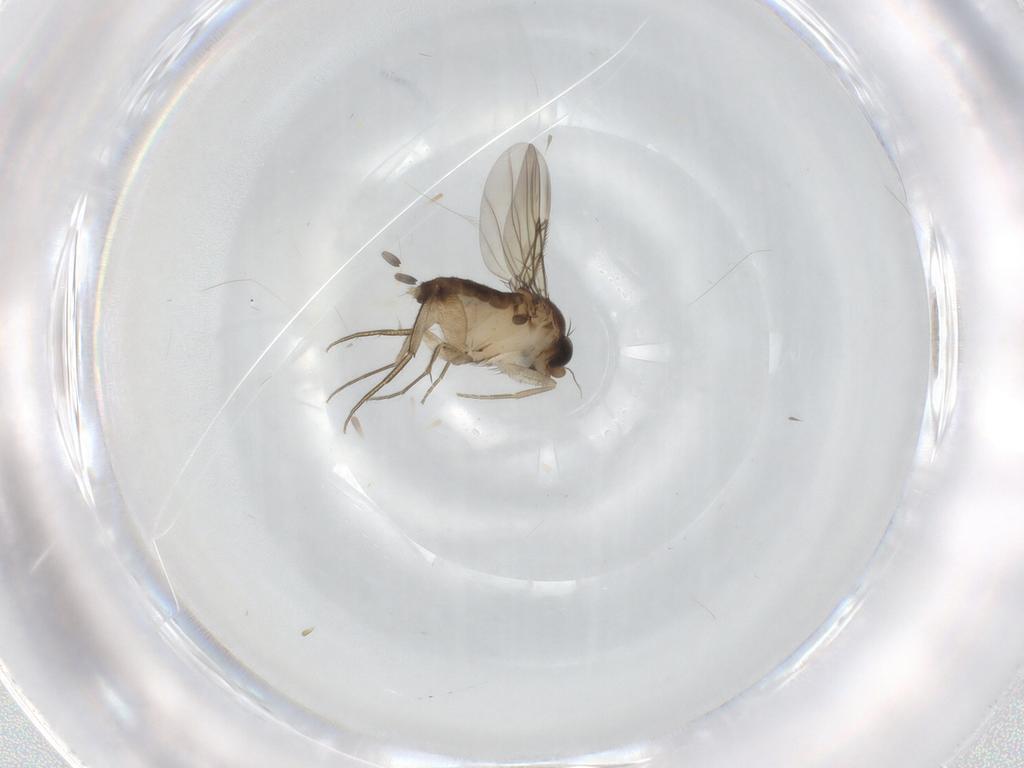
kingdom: Animalia
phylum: Arthropoda
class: Insecta
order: Diptera
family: Phoridae
